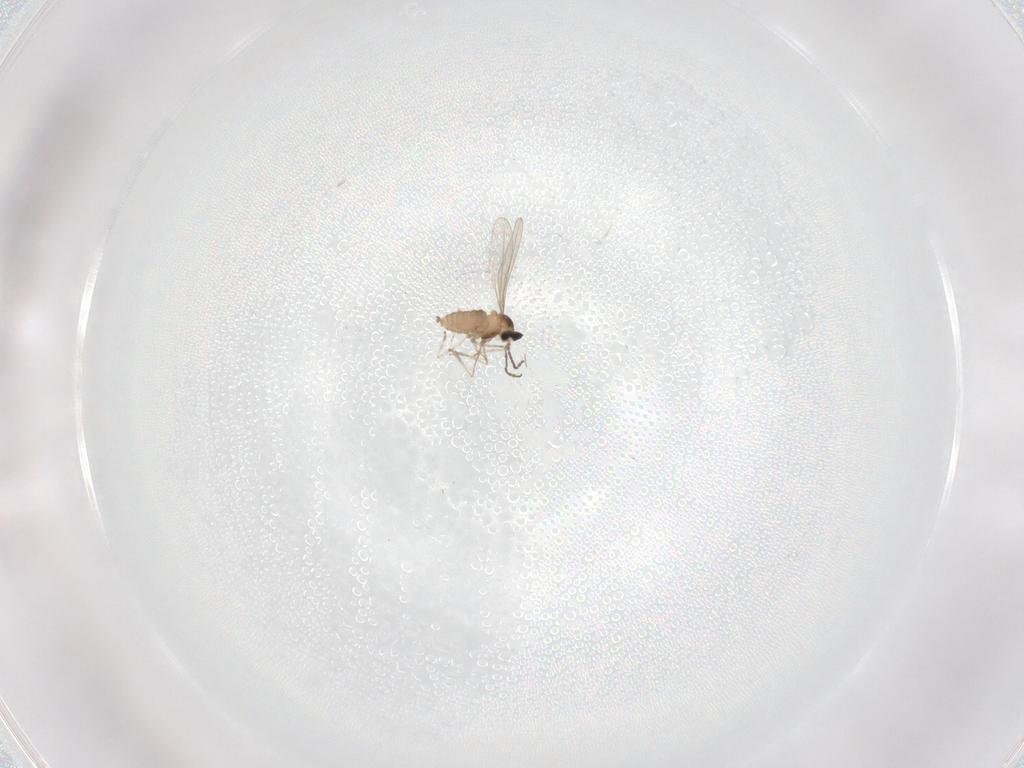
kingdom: Animalia
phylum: Arthropoda
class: Insecta
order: Diptera
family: Cecidomyiidae
